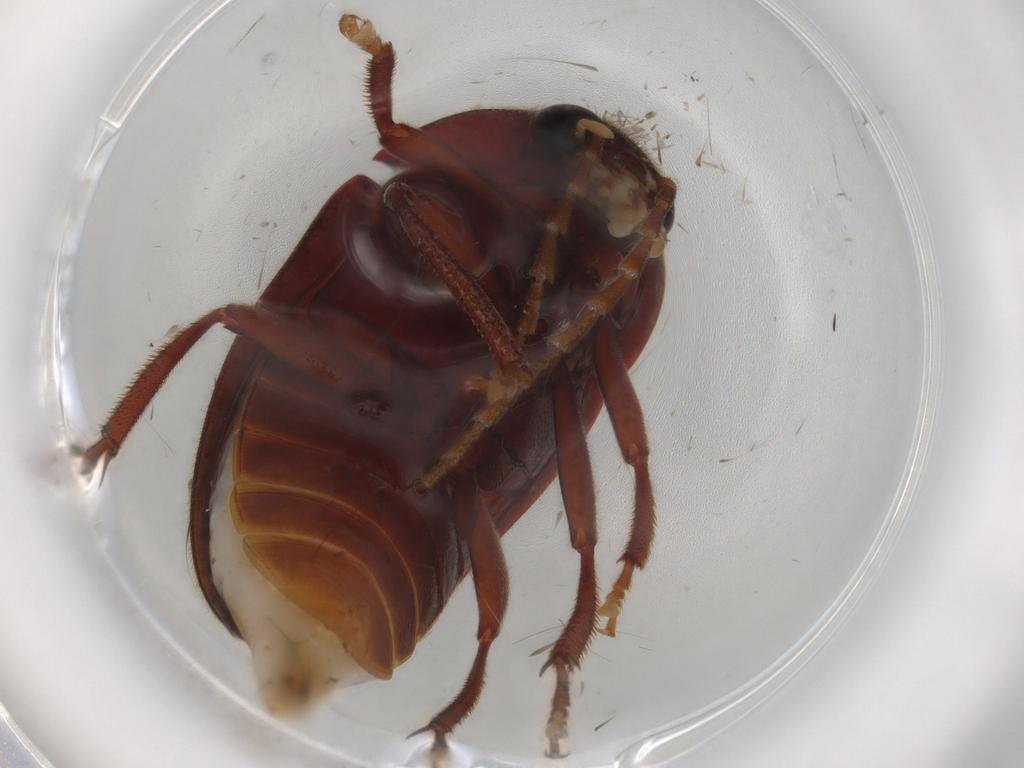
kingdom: Animalia
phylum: Arthropoda
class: Insecta
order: Coleoptera
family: Ptilodactylidae
